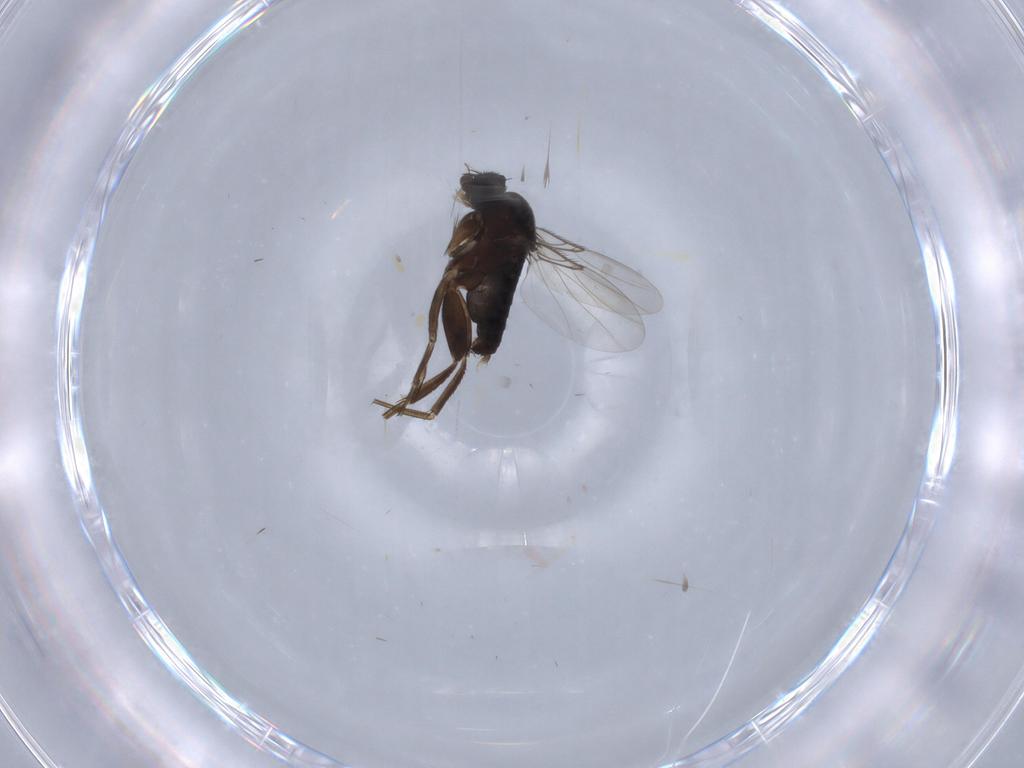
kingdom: Animalia
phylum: Arthropoda
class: Insecta
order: Diptera
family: Phoridae
